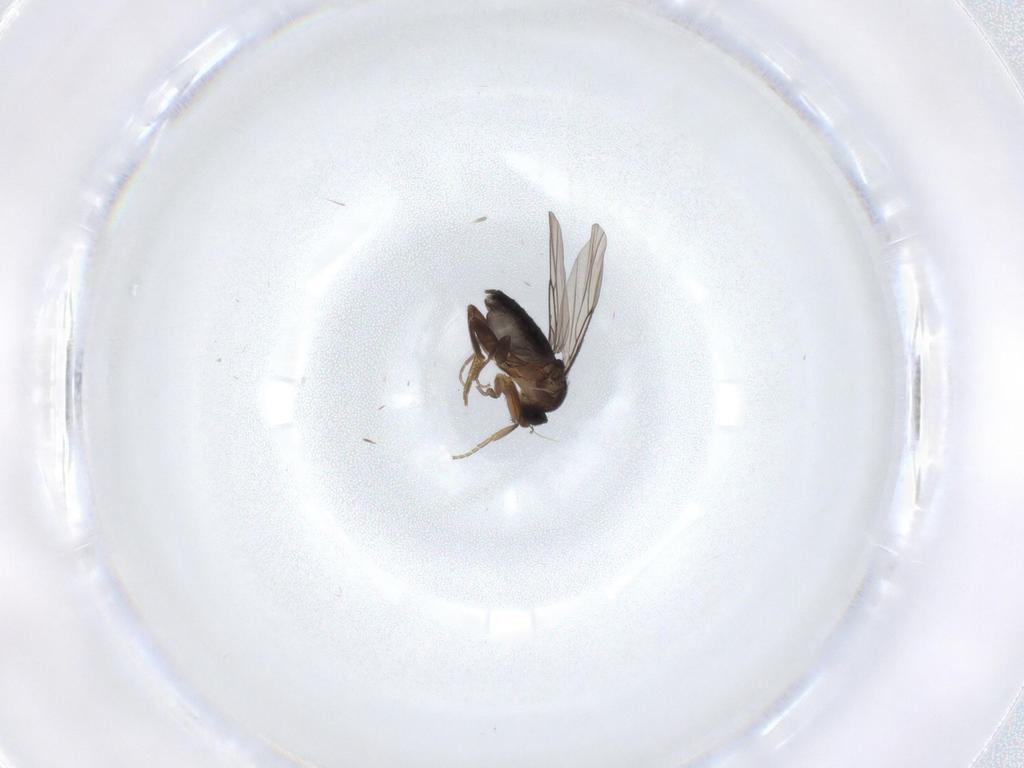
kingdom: Animalia
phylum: Arthropoda
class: Insecta
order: Diptera
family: Phoridae
